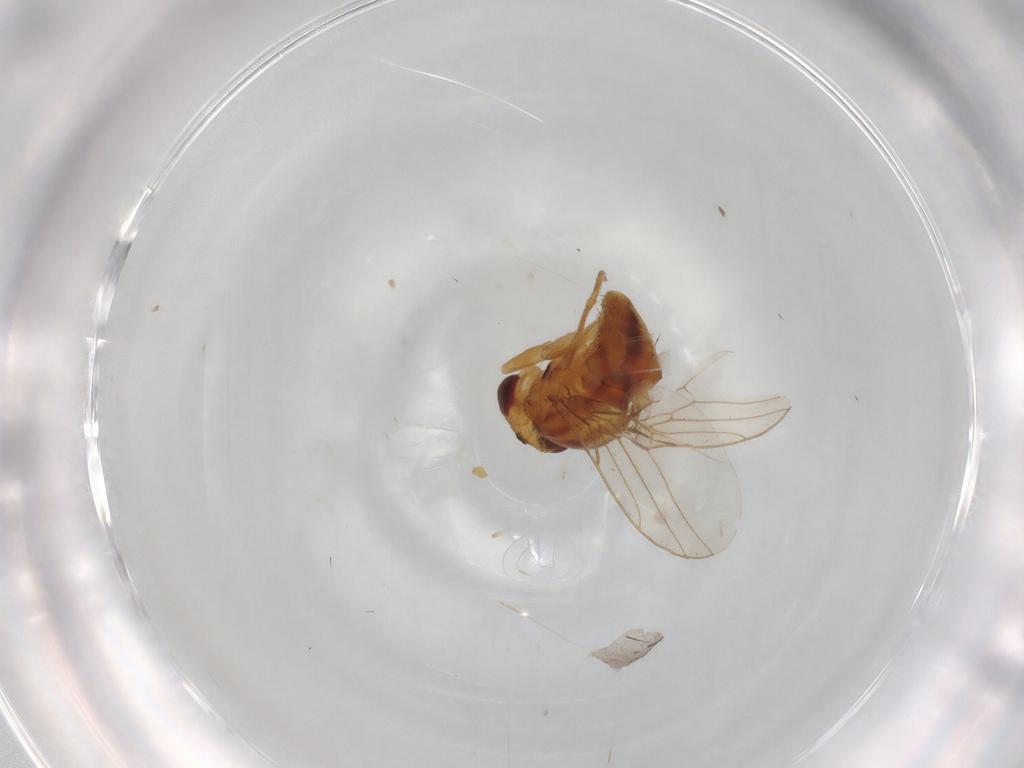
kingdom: Animalia
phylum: Arthropoda
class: Insecta
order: Diptera
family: Chloropidae
